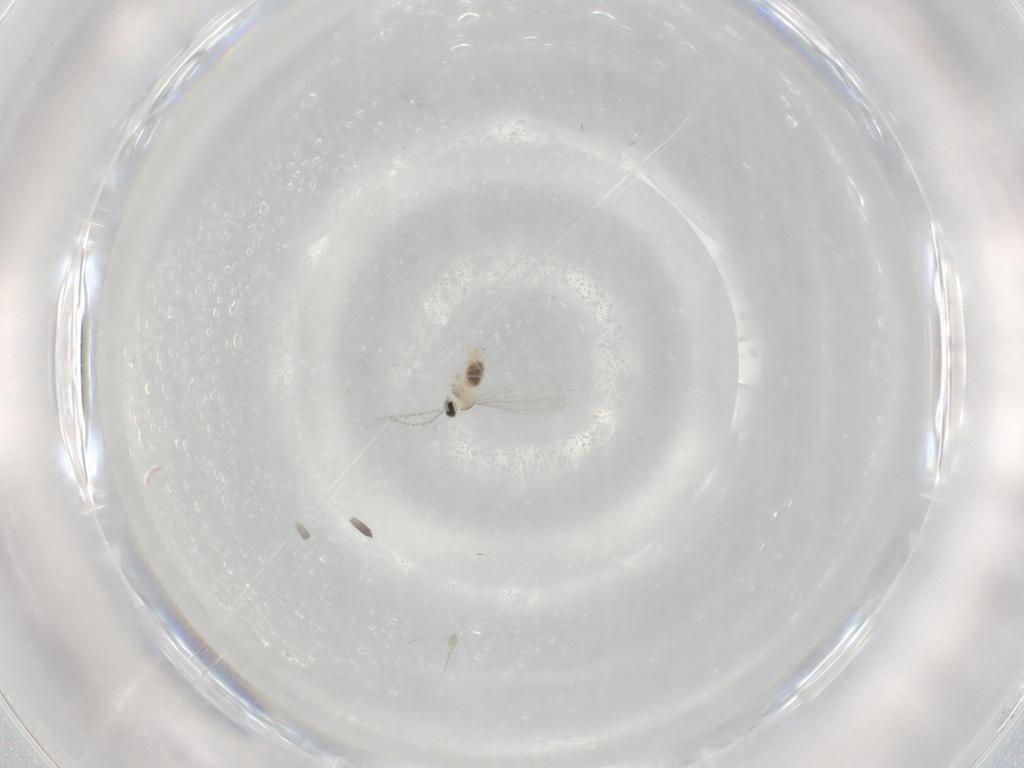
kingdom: Animalia
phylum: Arthropoda
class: Insecta
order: Diptera
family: Cecidomyiidae
